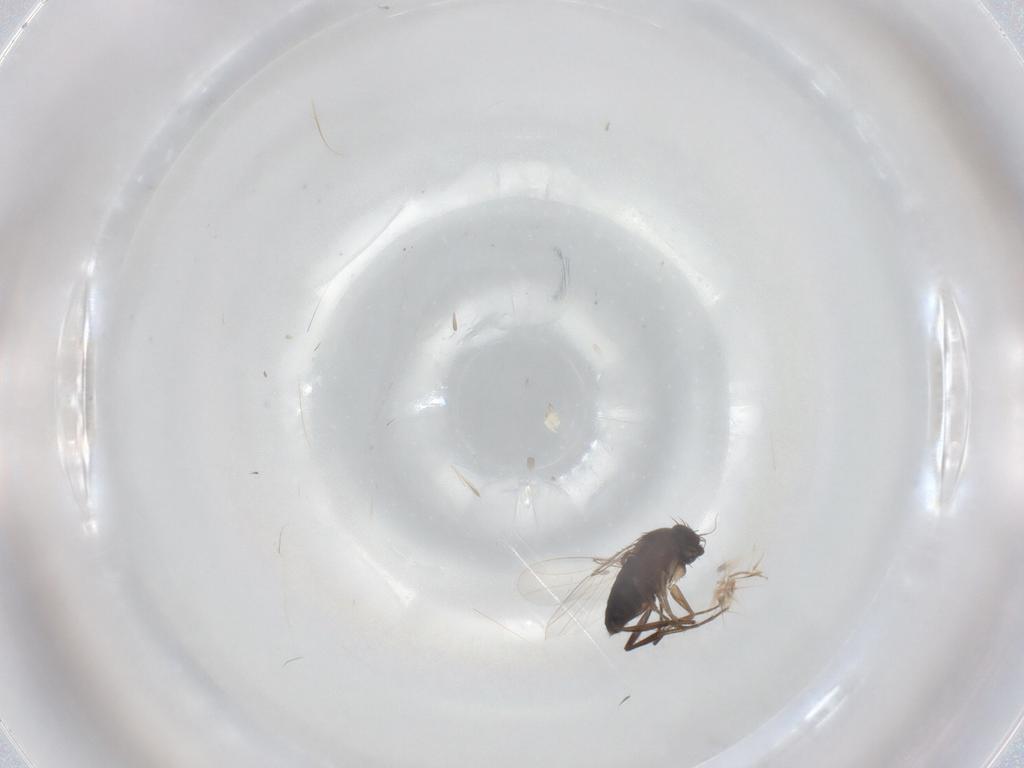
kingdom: Animalia
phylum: Arthropoda
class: Insecta
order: Diptera
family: Phoridae
